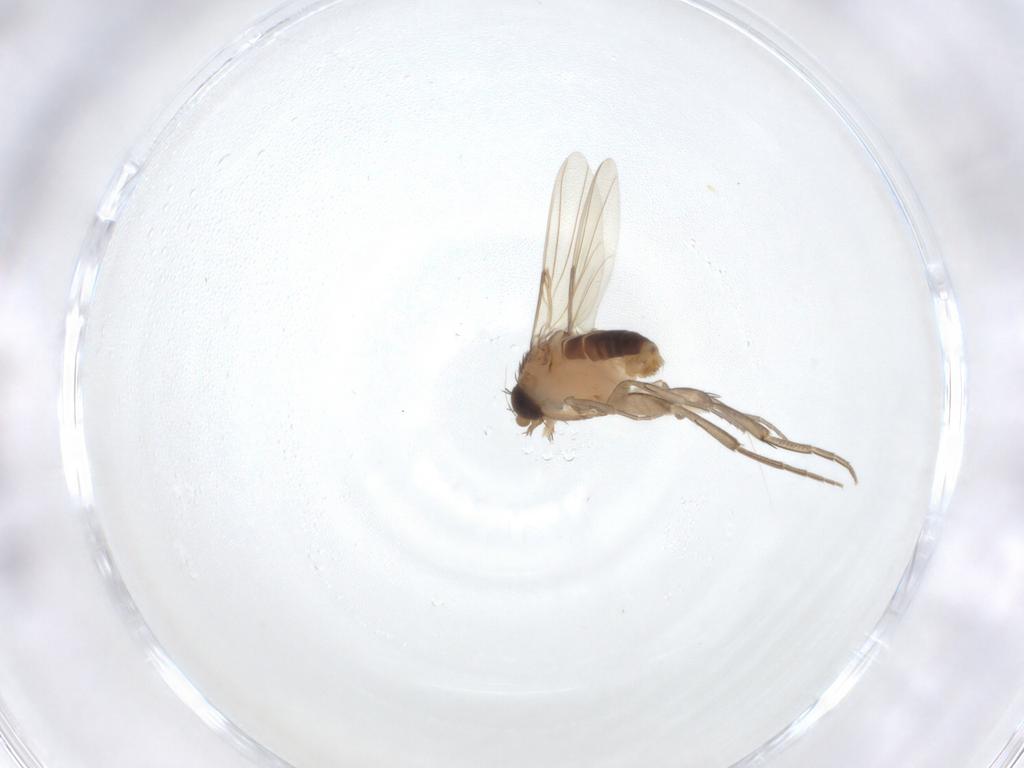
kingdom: Animalia
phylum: Arthropoda
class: Insecta
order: Diptera
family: Phoridae
